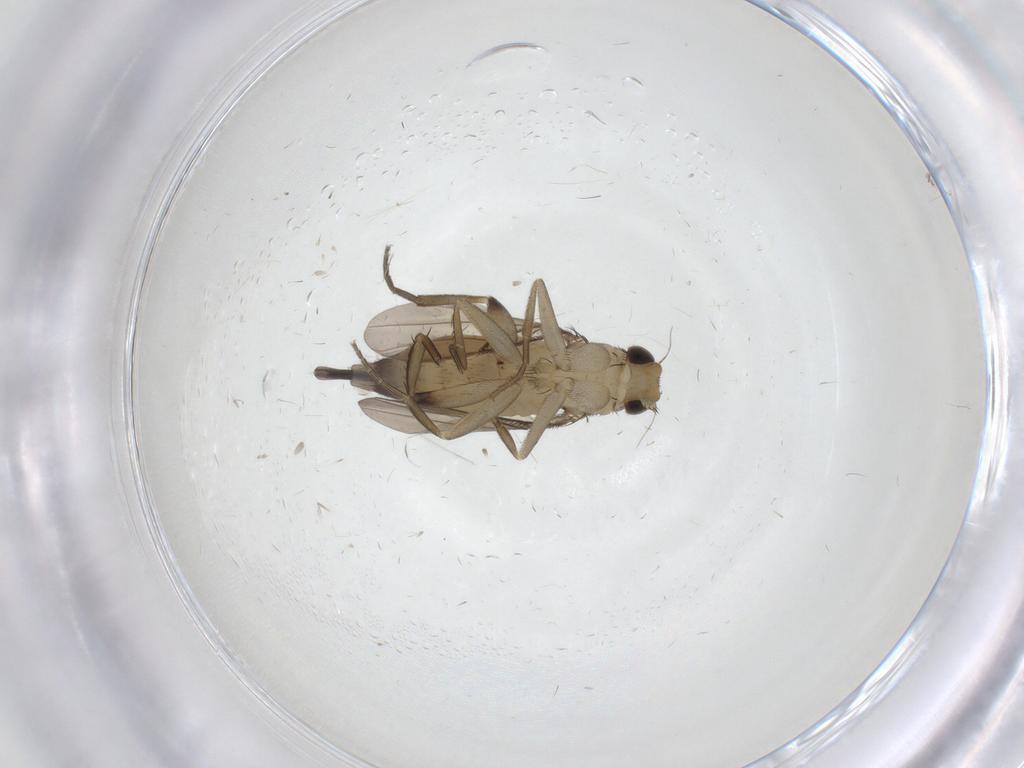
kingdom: Animalia
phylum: Arthropoda
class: Insecta
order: Diptera
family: Phoridae
